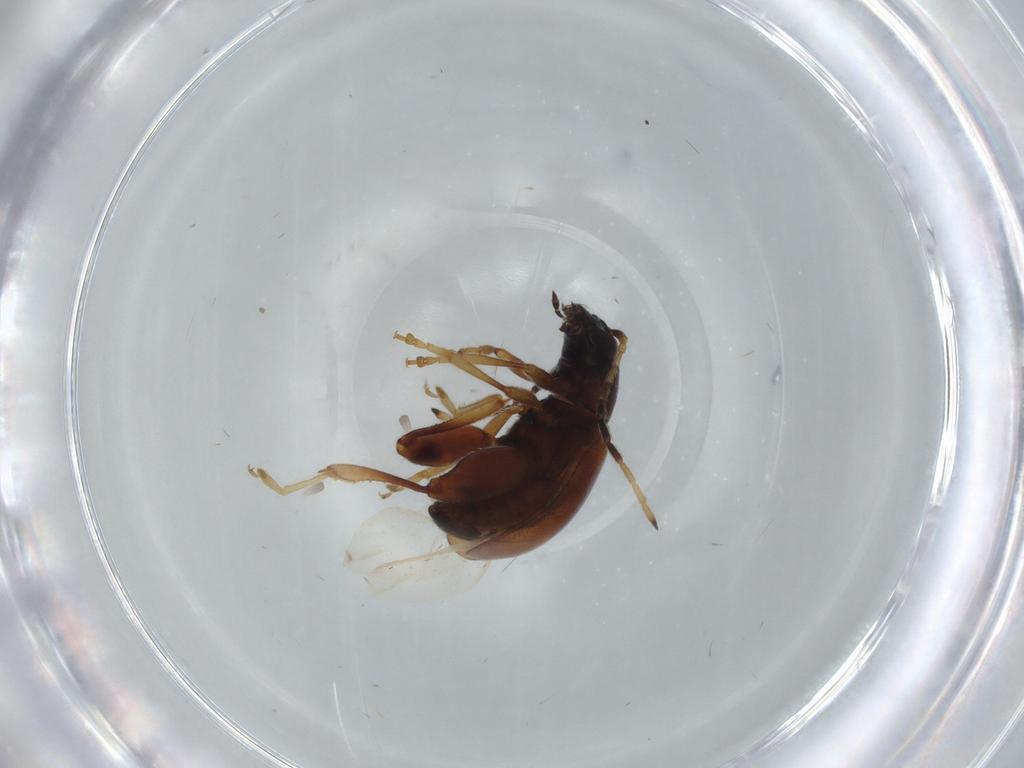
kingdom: Animalia
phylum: Arthropoda
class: Insecta
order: Coleoptera
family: Chrysomelidae
